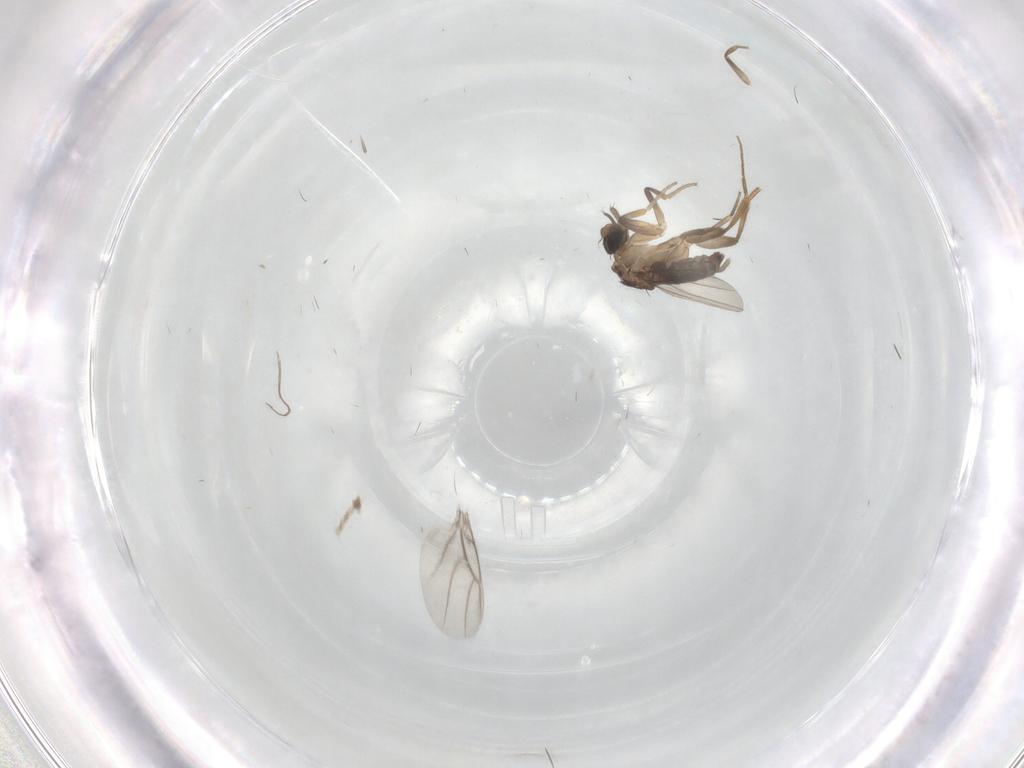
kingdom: Animalia
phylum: Arthropoda
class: Insecta
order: Diptera
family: Cecidomyiidae
